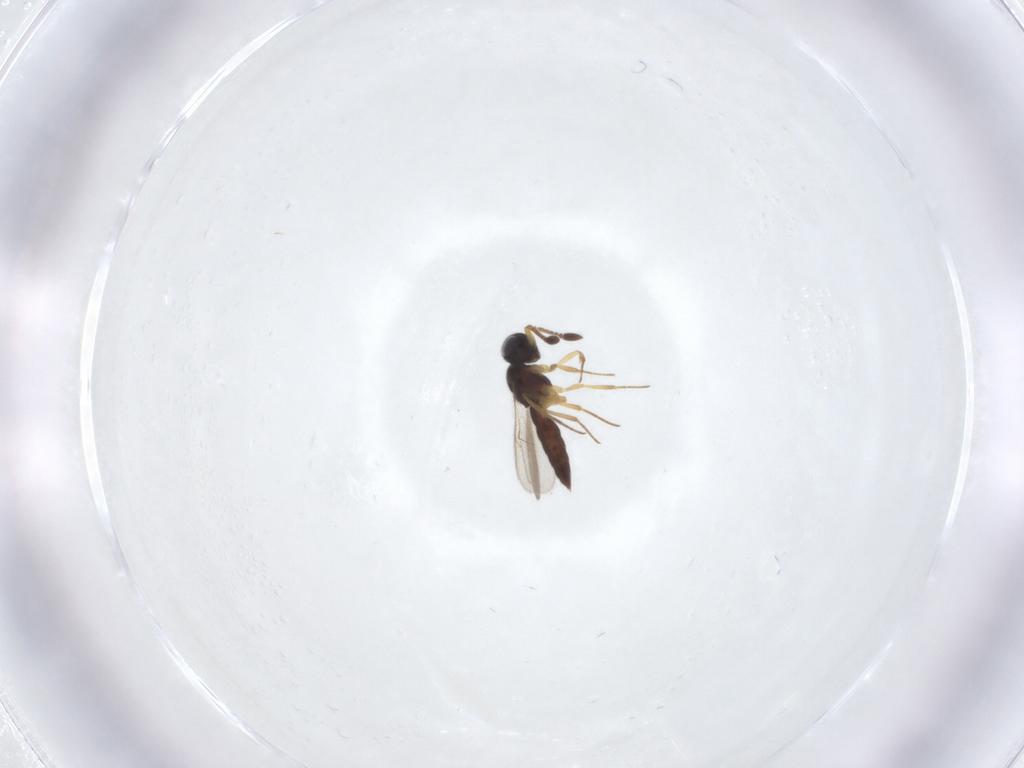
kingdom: Animalia
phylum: Arthropoda
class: Insecta
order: Hymenoptera
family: Scelionidae
